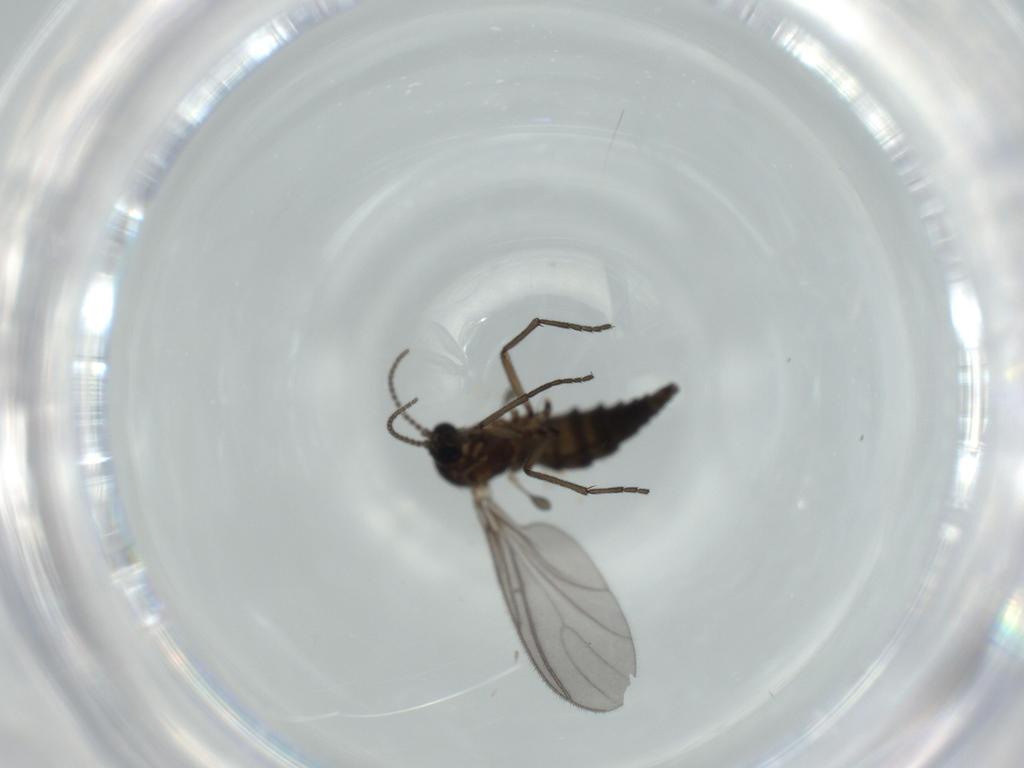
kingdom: Animalia
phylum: Arthropoda
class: Insecta
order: Diptera
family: Sciaridae
